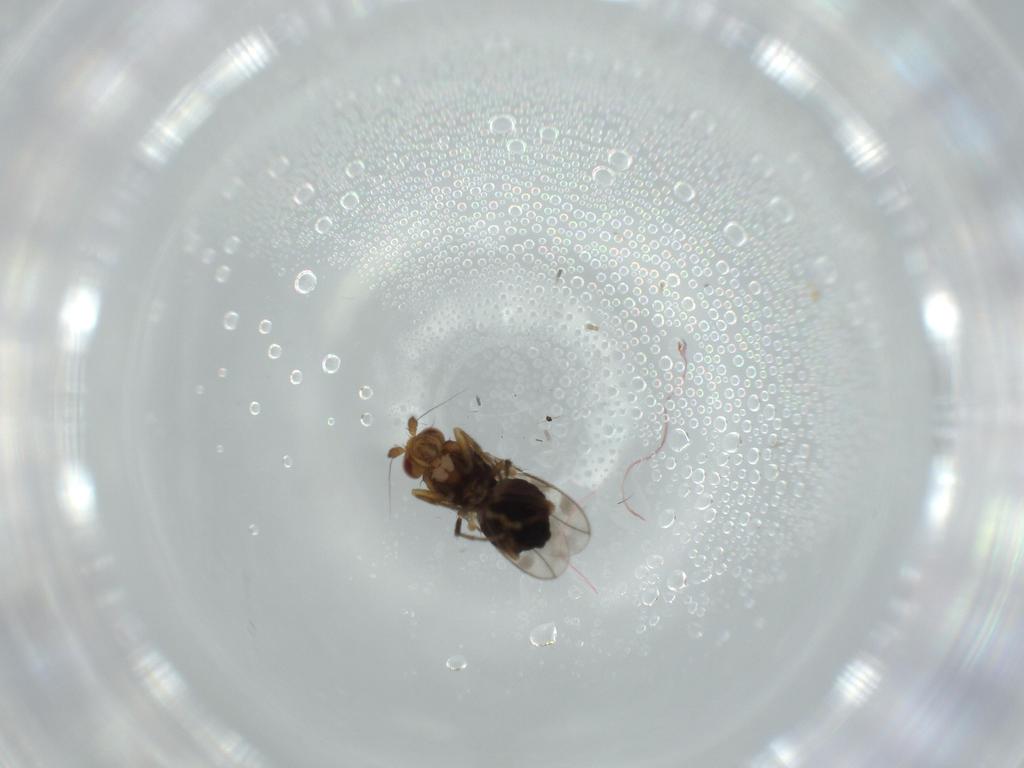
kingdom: Animalia
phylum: Arthropoda
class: Insecta
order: Diptera
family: Sphaeroceridae
